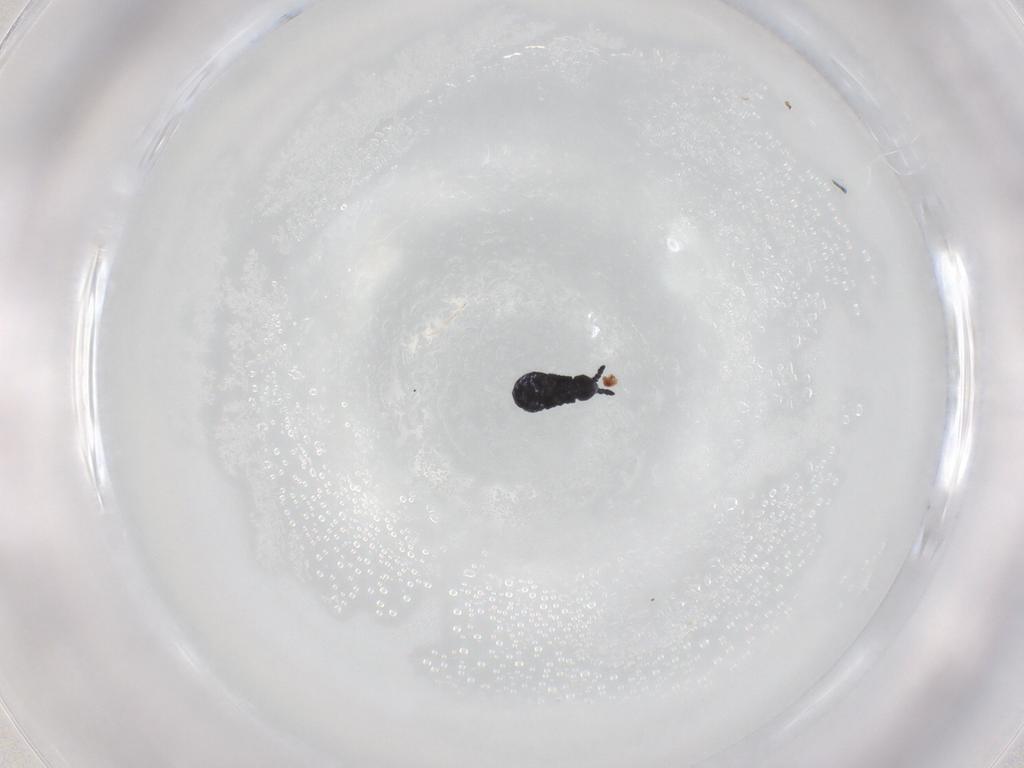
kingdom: Animalia
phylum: Arthropoda
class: Collembola
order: Poduromorpha
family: Hypogastruridae
